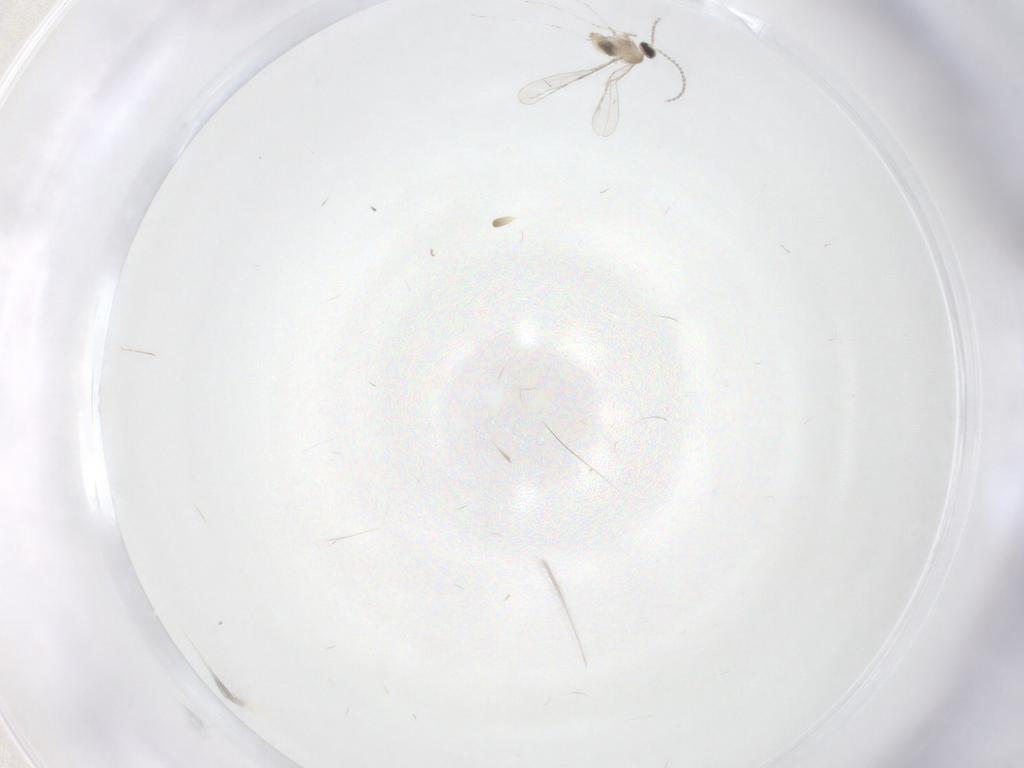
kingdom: Animalia
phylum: Arthropoda
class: Insecta
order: Diptera
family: Cecidomyiidae
